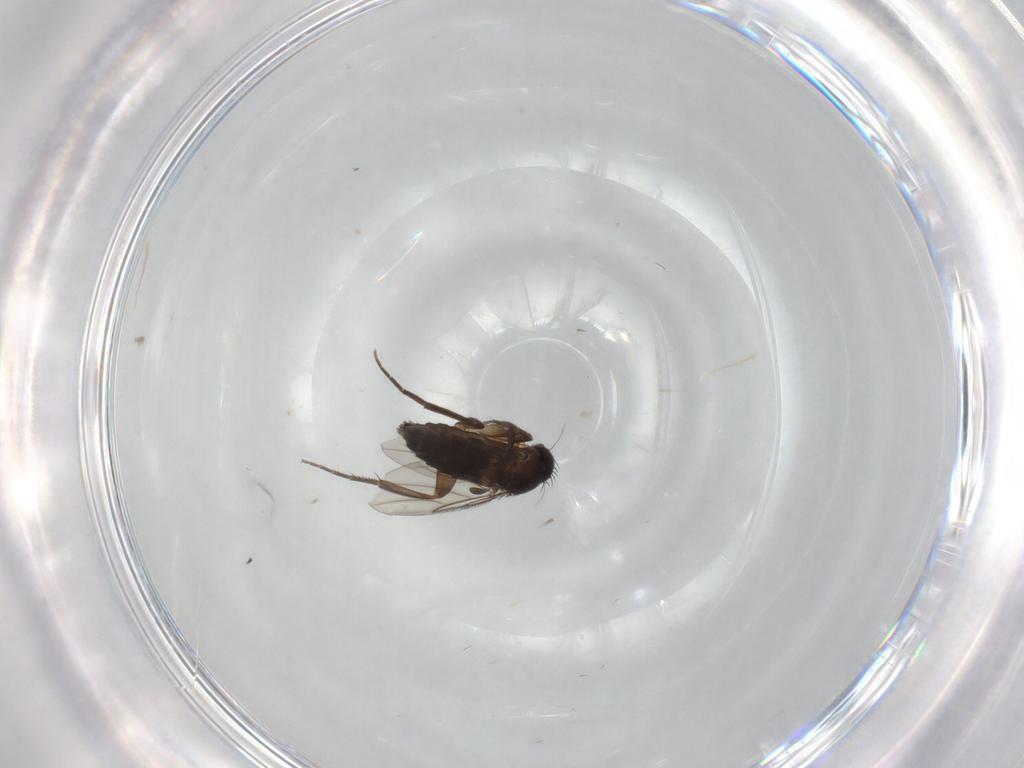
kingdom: Animalia
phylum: Arthropoda
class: Insecta
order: Diptera
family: Phoridae
